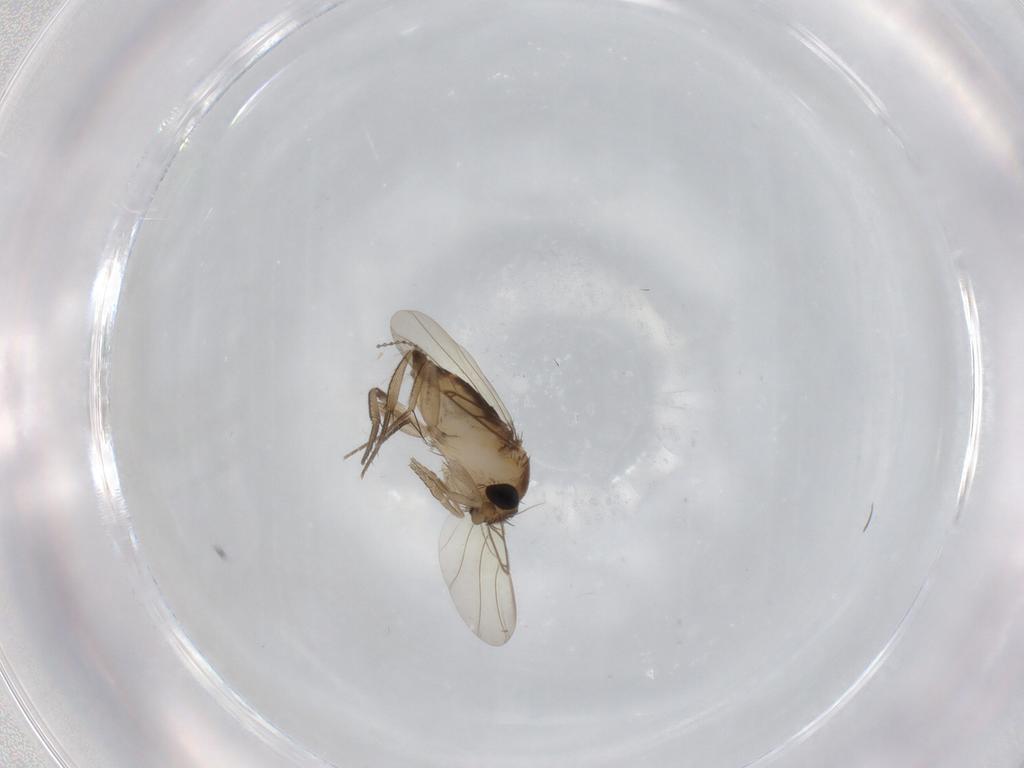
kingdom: Animalia
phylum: Arthropoda
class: Insecta
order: Diptera
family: Cecidomyiidae
